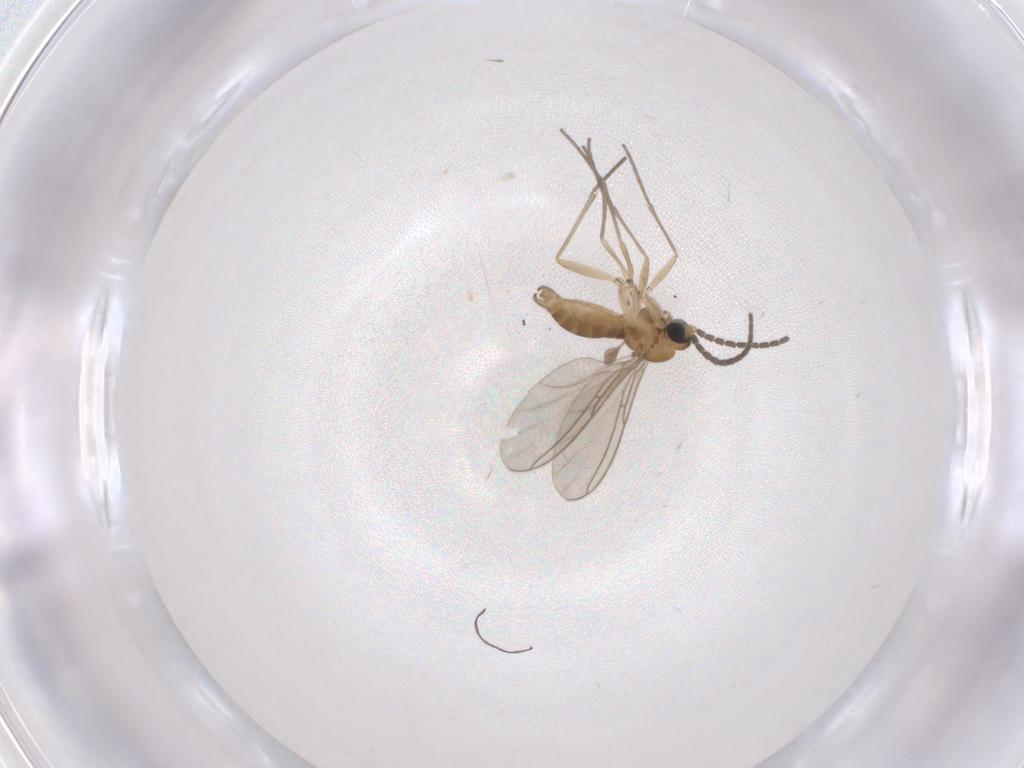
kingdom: Animalia
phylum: Arthropoda
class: Insecta
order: Diptera
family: Sciaridae
